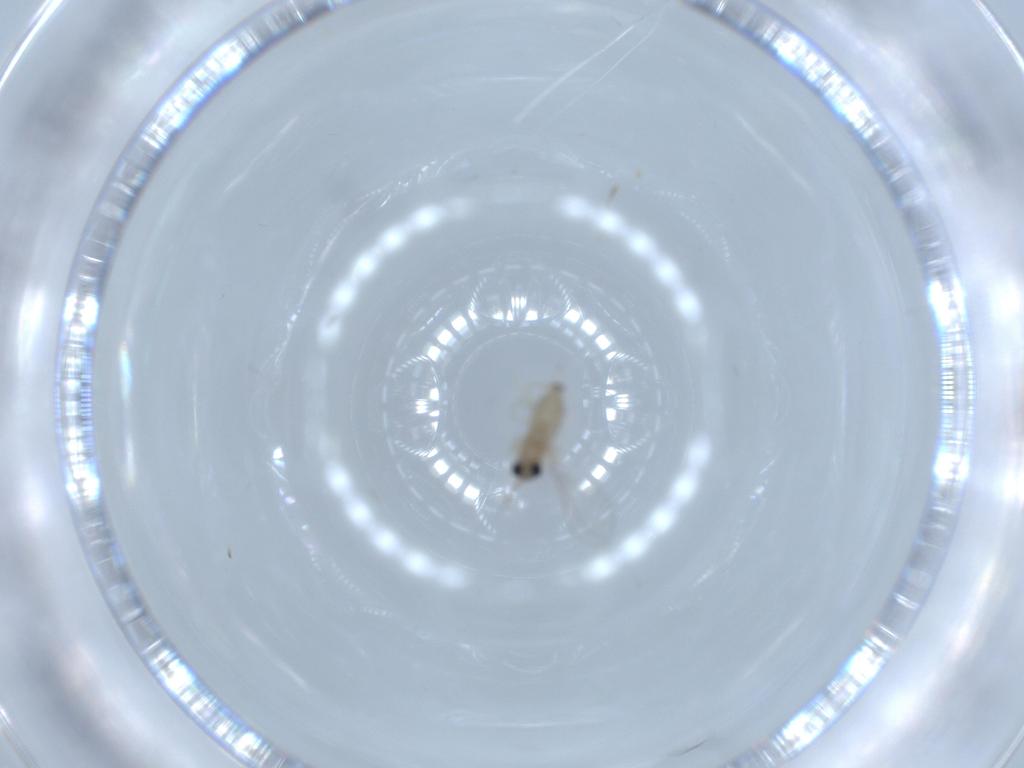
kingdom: Animalia
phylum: Arthropoda
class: Insecta
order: Diptera
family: Cecidomyiidae
